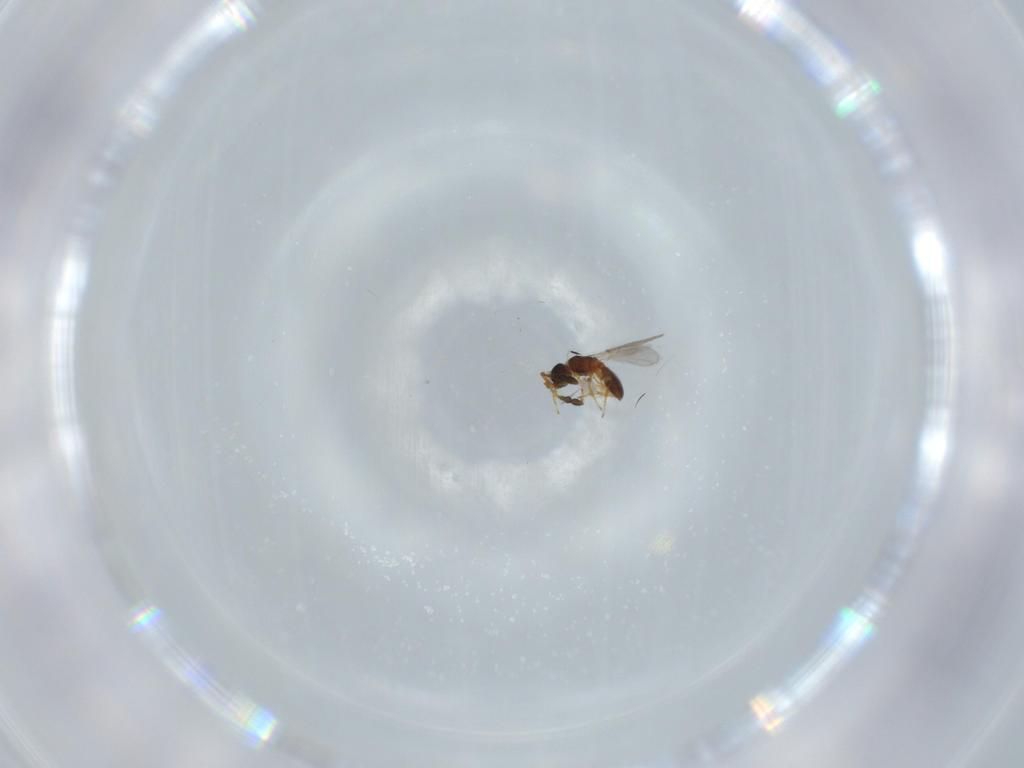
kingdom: Animalia
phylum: Arthropoda
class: Insecta
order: Hymenoptera
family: Diapriidae
